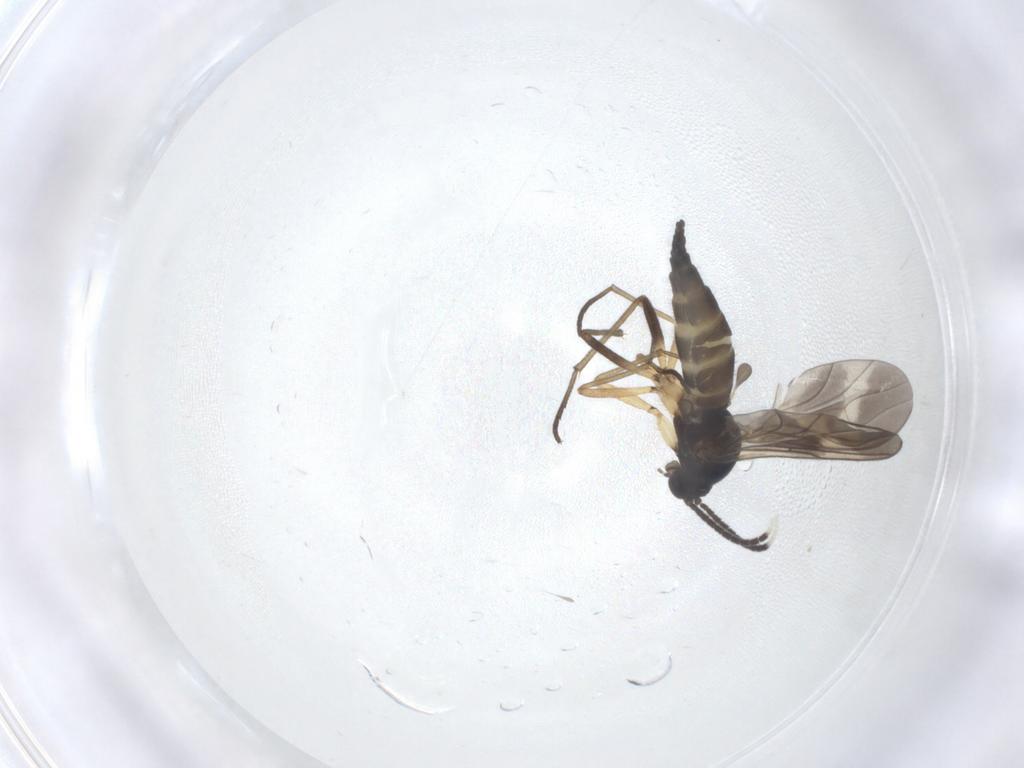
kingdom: Animalia
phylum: Arthropoda
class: Insecta
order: Diptera
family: Sciaridae
